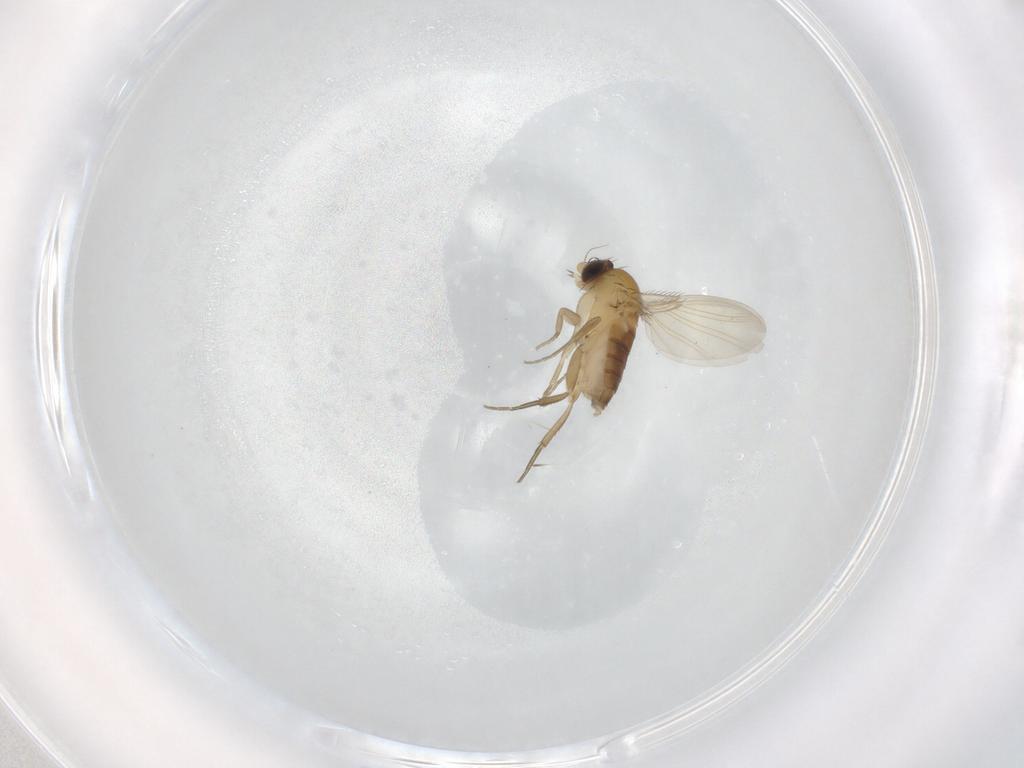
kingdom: Animalia
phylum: Arthropoda
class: Insecta
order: Diptera
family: Phoridae
